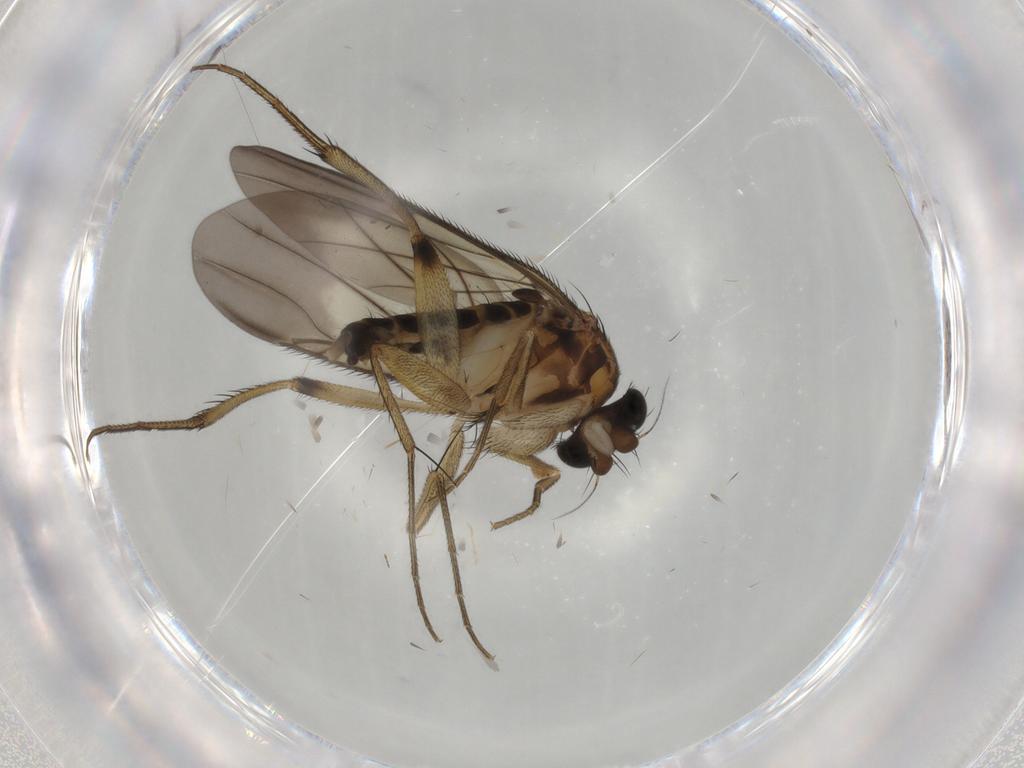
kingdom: Animalia
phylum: Arthropoda
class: Insecta
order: Diptera
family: Phoridae
